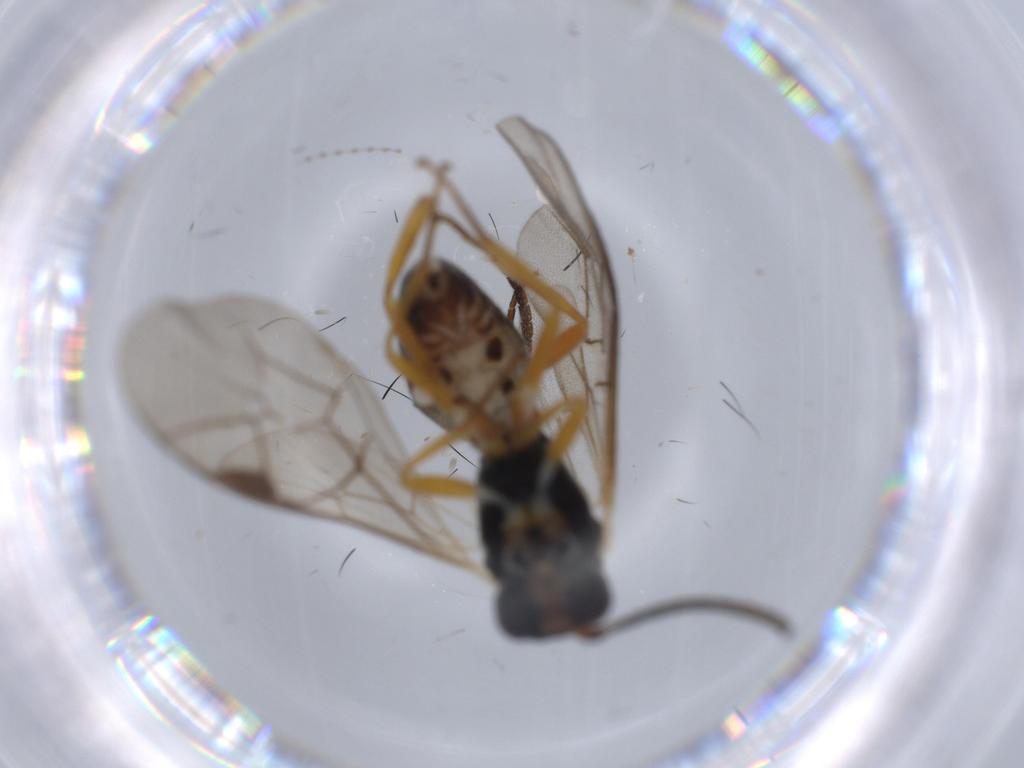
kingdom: Animalia
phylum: Arthropoda
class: Insecta
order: Hymenoptera
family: Ichneumonidae
